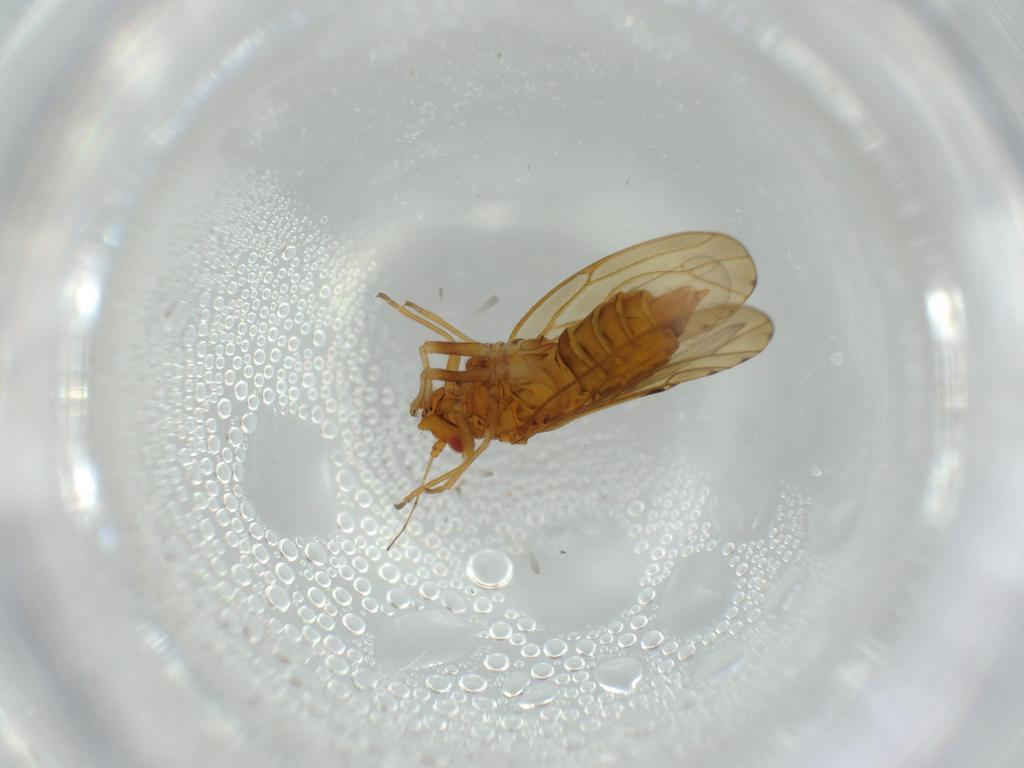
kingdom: Animalia
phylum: Arthropoda
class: Insecta
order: Hemiptera
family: Psylloidea_incertae_sedis
